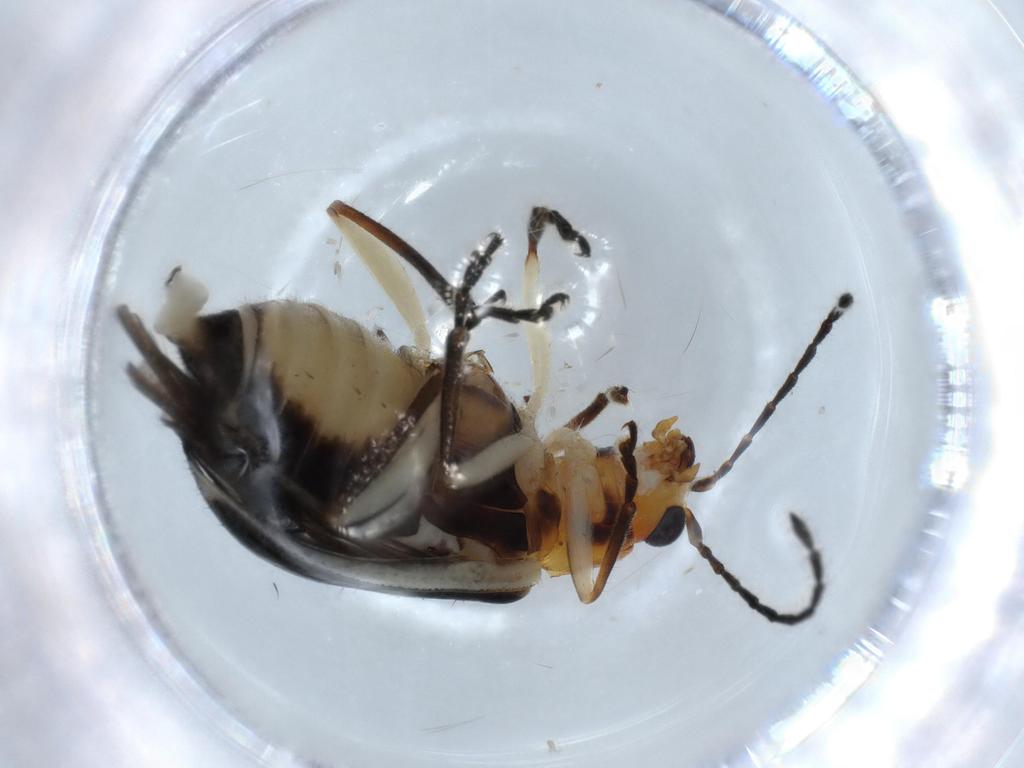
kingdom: Animalia
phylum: Arthropoda
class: Insecta
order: Coleoptera
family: Chrysomelidae
